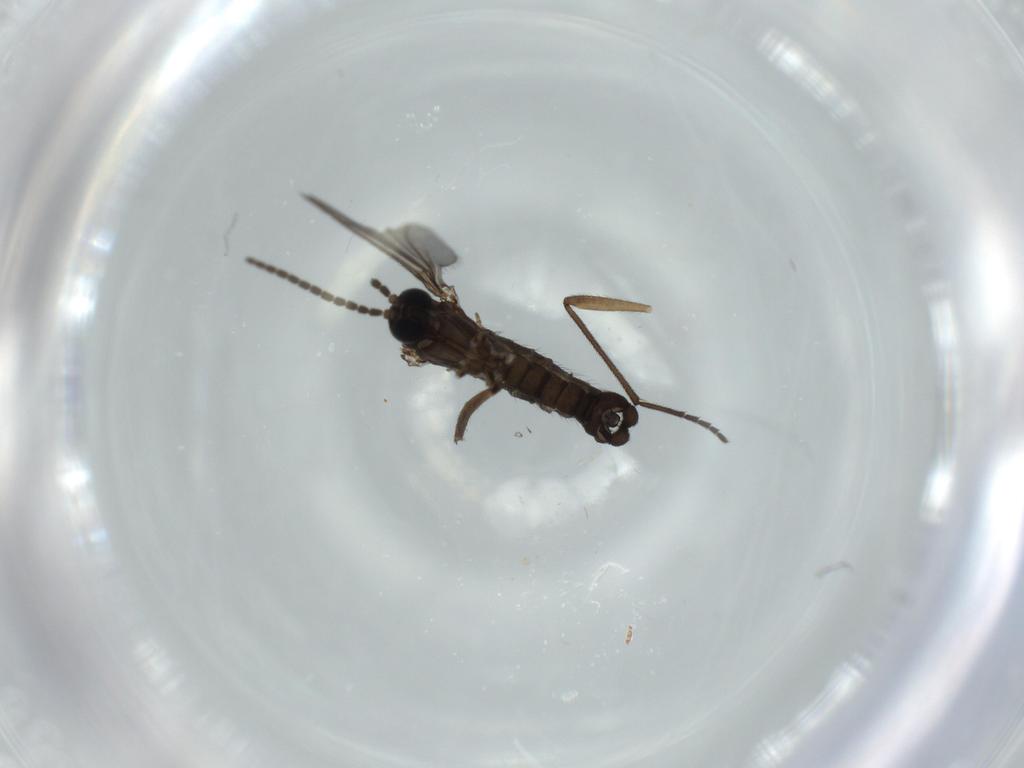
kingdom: Animalia
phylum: Arthropoda
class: Insecta
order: Diptera
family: Sciaridae
